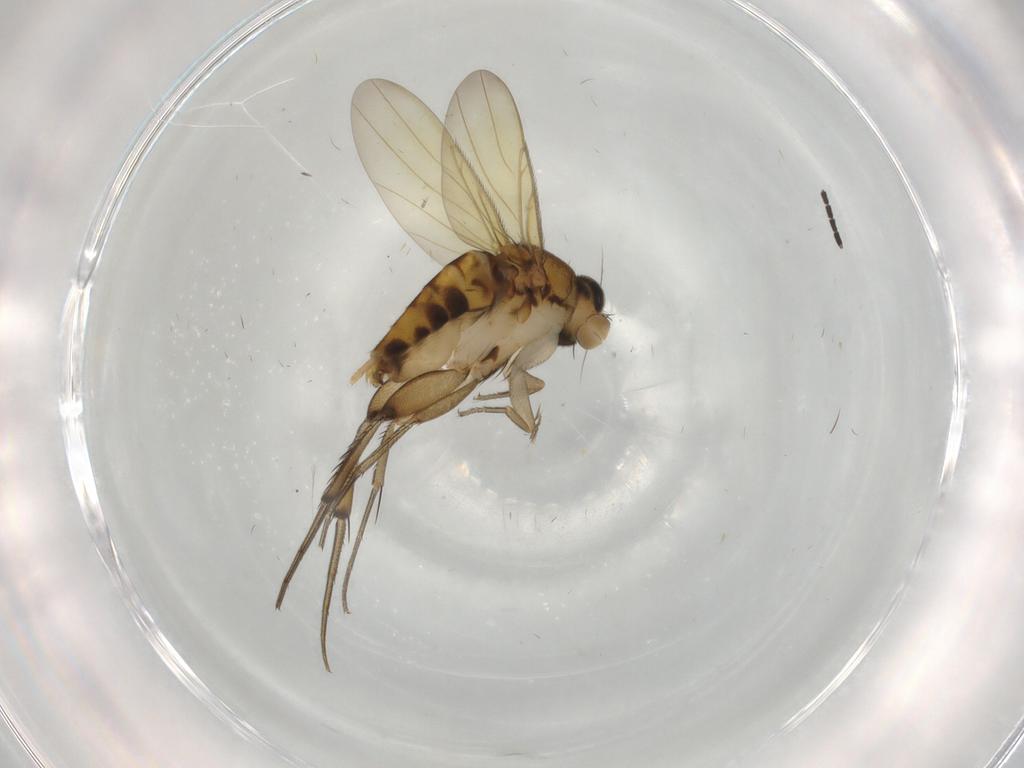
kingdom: Animalia
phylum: Arthropoda
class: Insecta
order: Diptera
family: Phoridae
